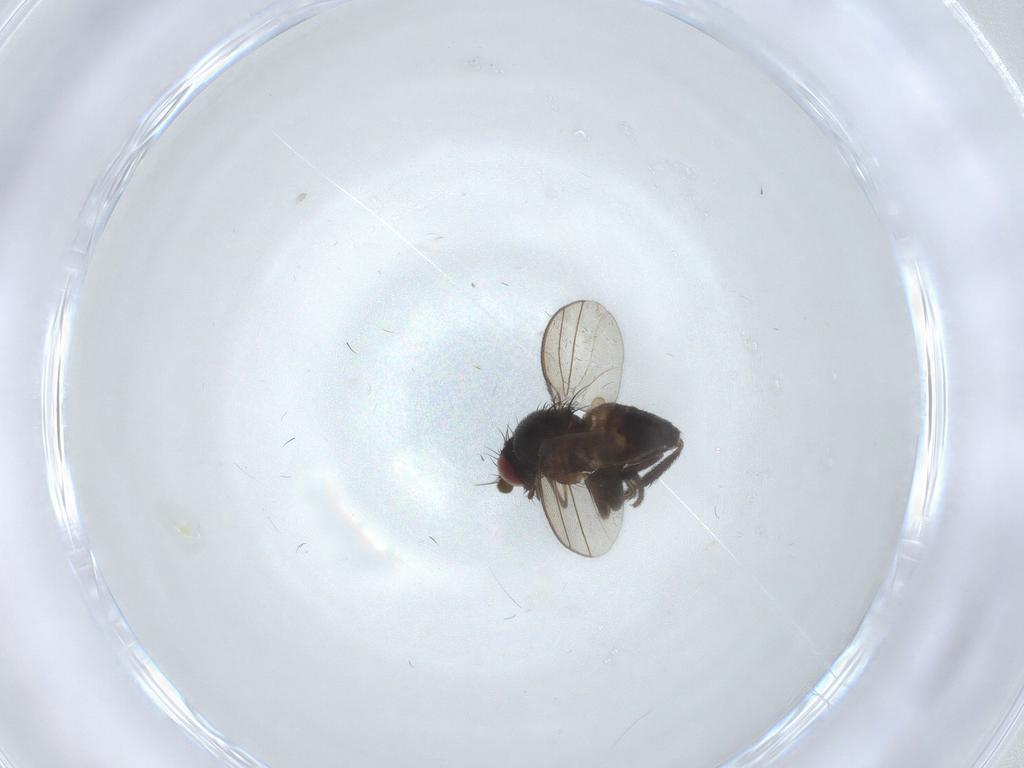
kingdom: Animalia
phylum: Arthropoda
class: Insecta
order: Diptera
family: Milichiidae
